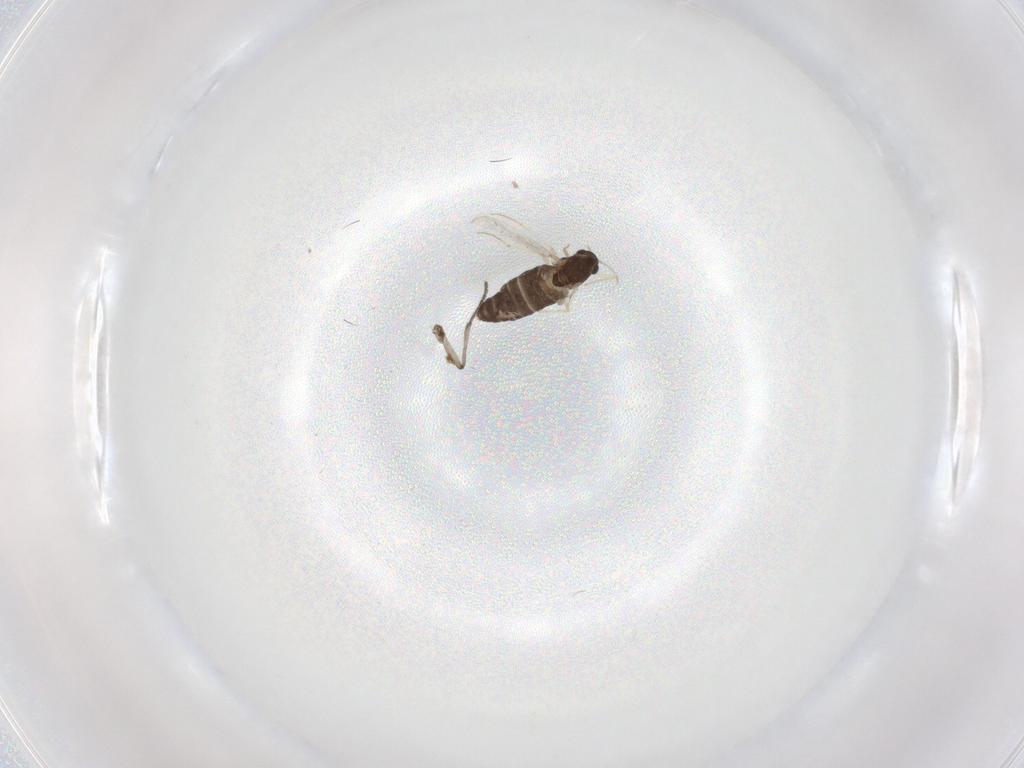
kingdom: Animalia
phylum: Arthropoda
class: Insecta
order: Diptera
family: Chironomidae
